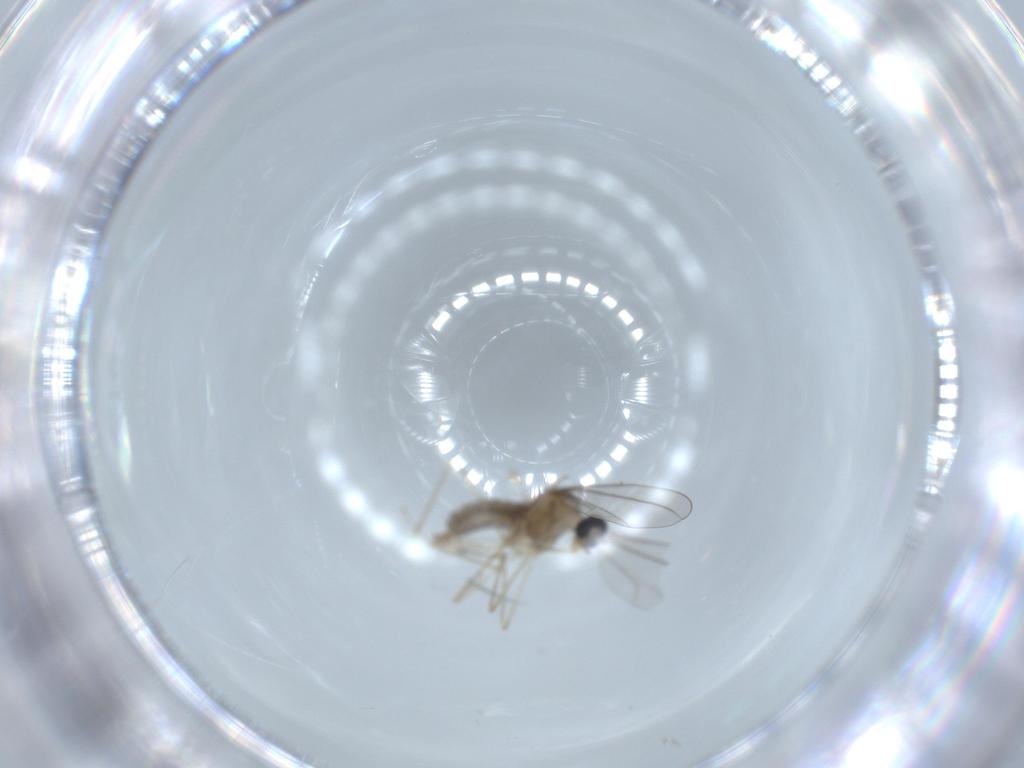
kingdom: Animalia
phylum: Arthropoda
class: Insecta
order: Diptera
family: Cecidomyiidae
